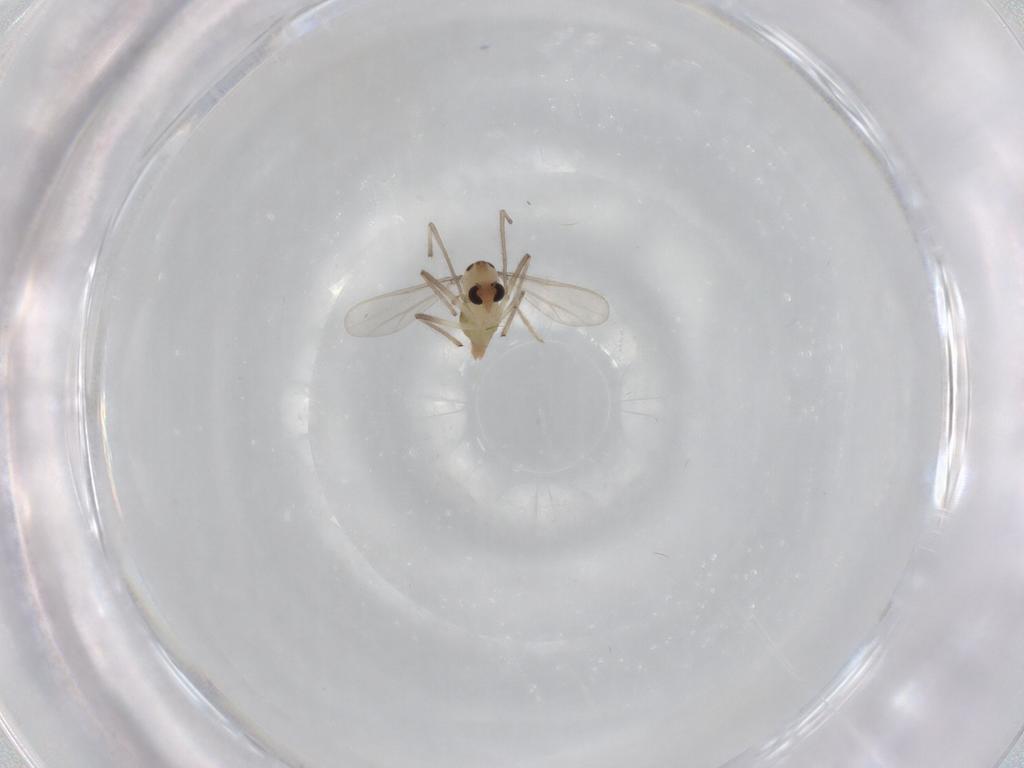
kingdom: Animalia
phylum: Arthropoda
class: Insecta
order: Diptera
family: Chironomidae
